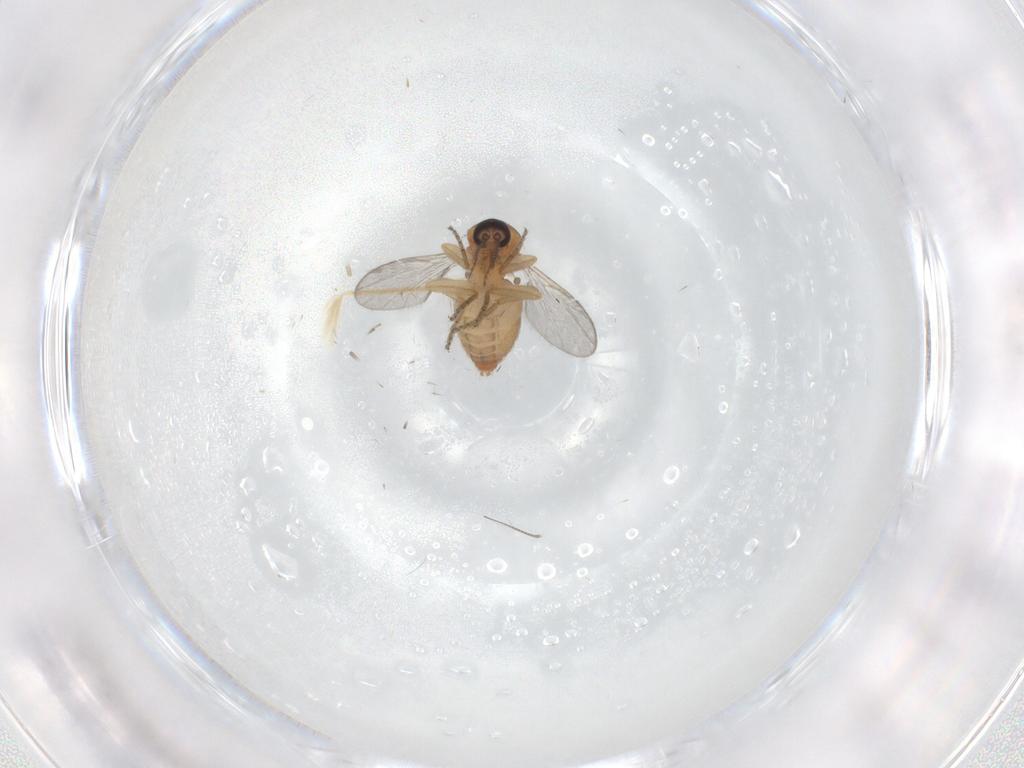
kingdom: Animalia
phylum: Arthropoda
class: Insecta
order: Diptera
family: Ceratopogonidae
